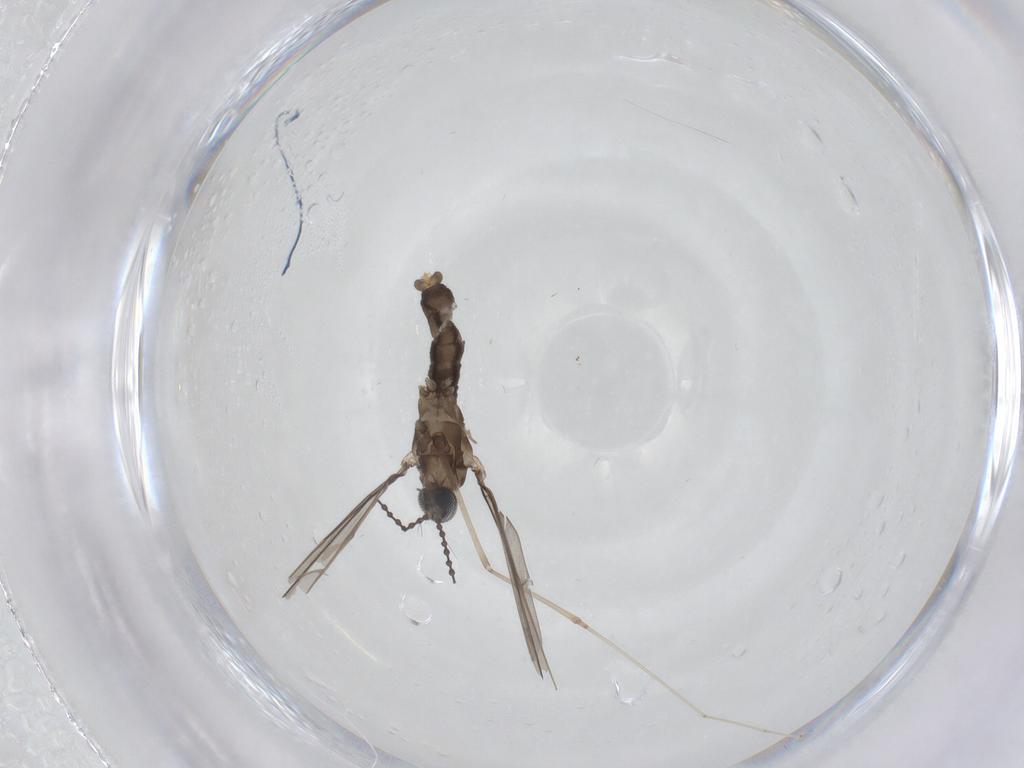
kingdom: Animalia
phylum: Arthropoda
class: Insecta
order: Diptera
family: Cecidomyiidae
